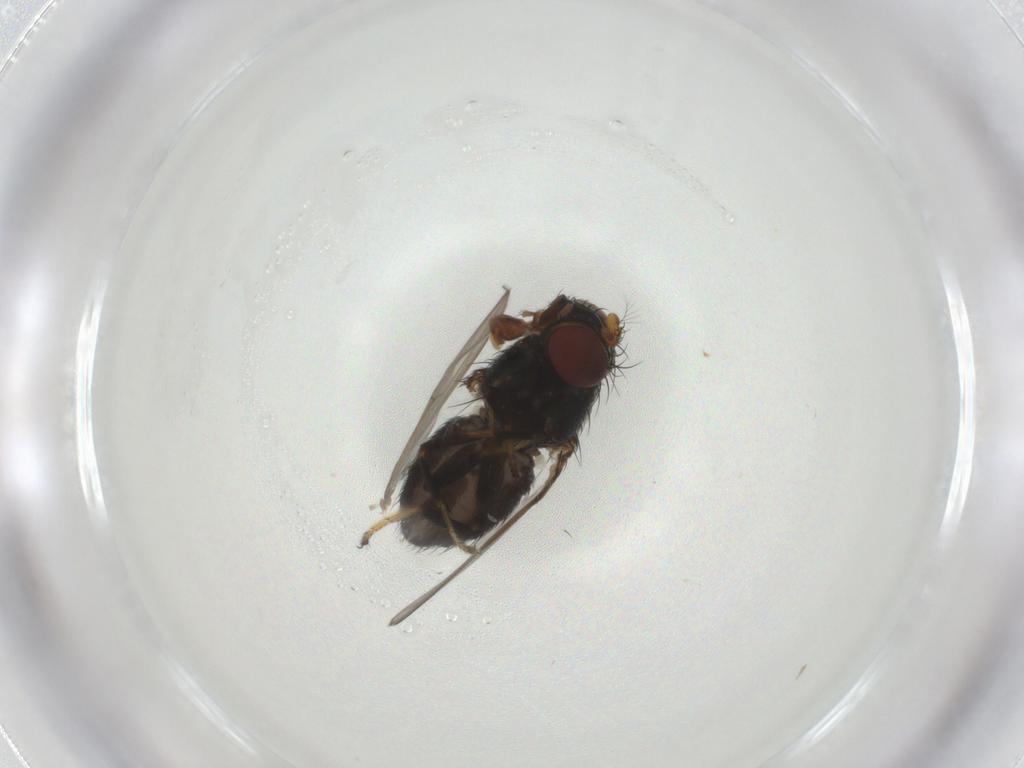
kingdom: Animalia
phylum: Arthropoda
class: Insecta
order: Diptera
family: Ephydridae
